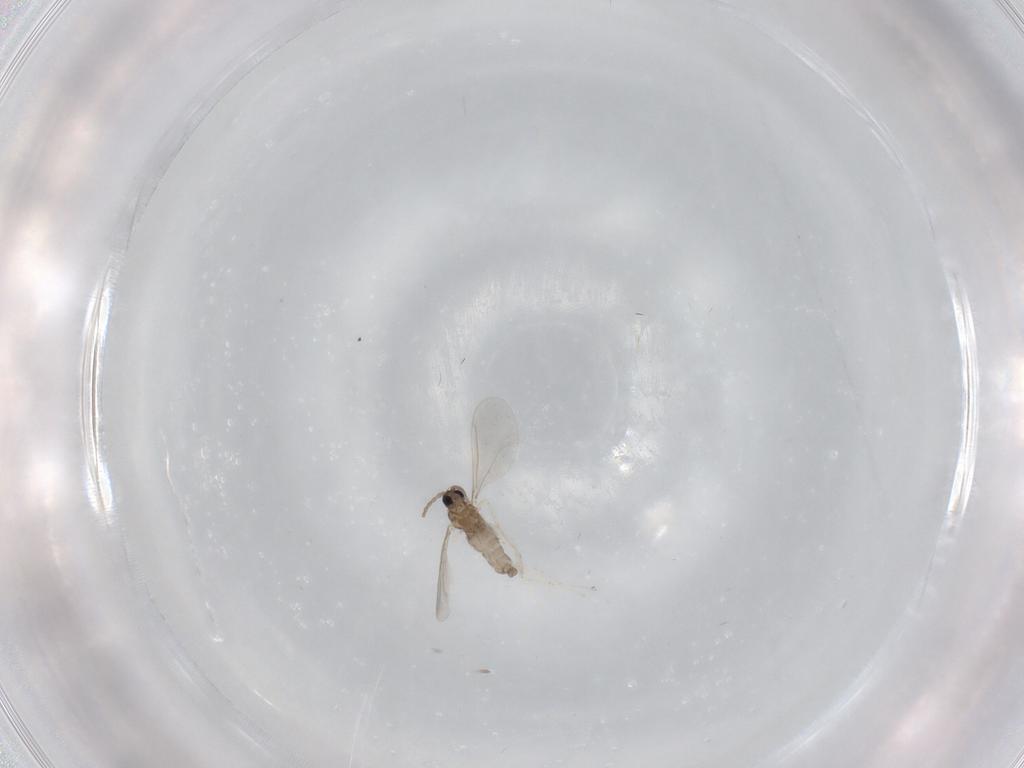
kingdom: Animalia
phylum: Arthropoda
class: Insecta
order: Diptera
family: Cecidomyiidae
